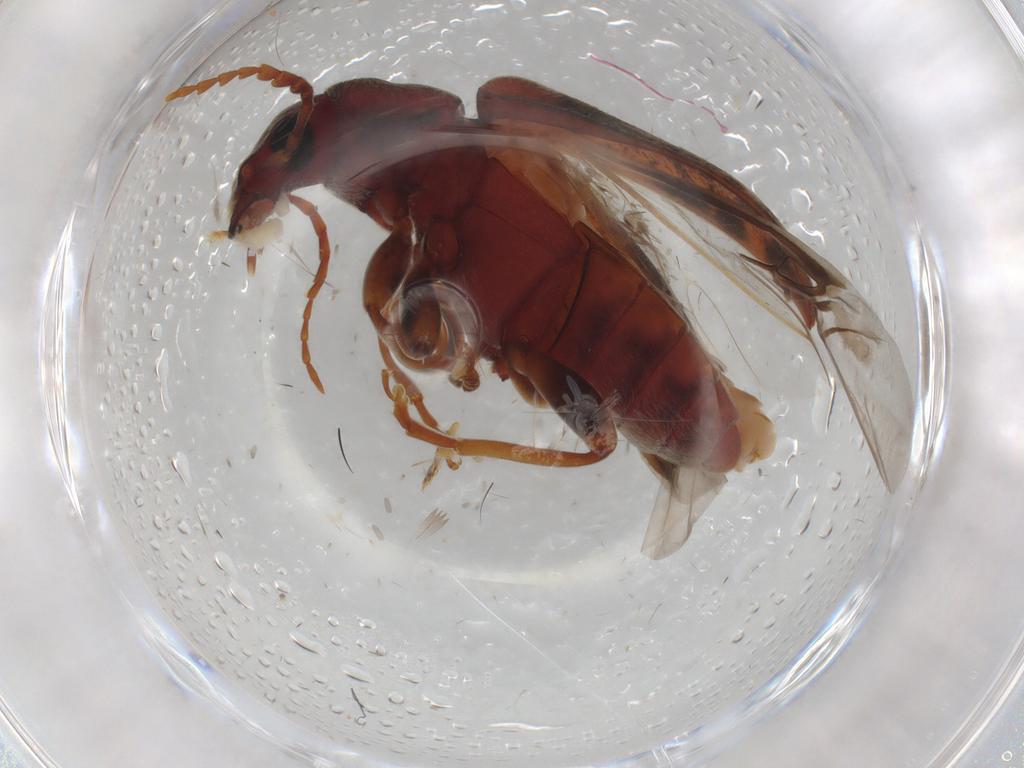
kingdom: Animalia
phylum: Arthropoda
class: Insecta
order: Coleoptera
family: Mycteridae
